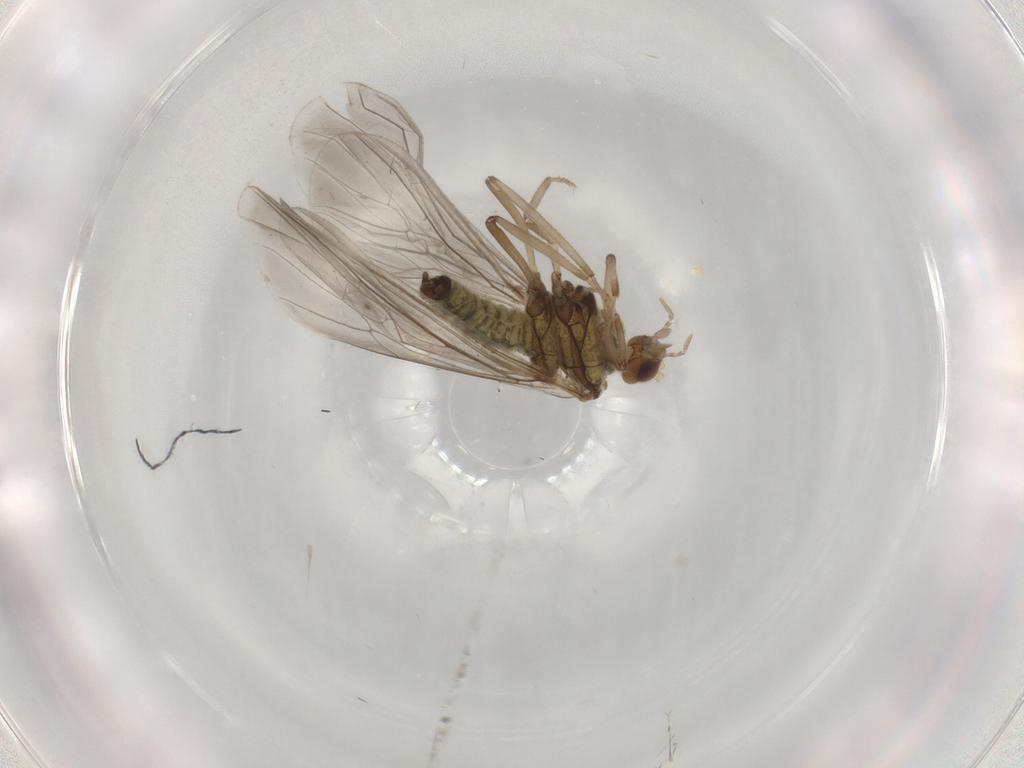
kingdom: Animalia
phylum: Arthropoda
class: Insecta
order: Neuroptera
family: Coniopterygidae
